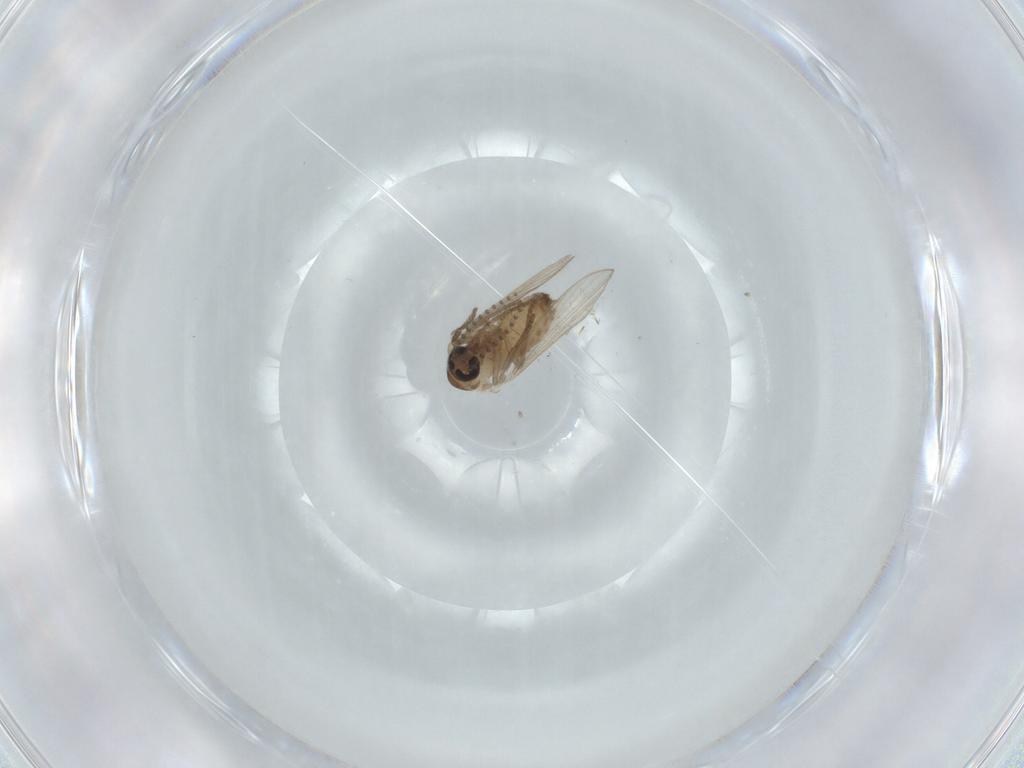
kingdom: Animalia
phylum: Arthropoda
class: Insecta
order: Diptera
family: Psychodidae
